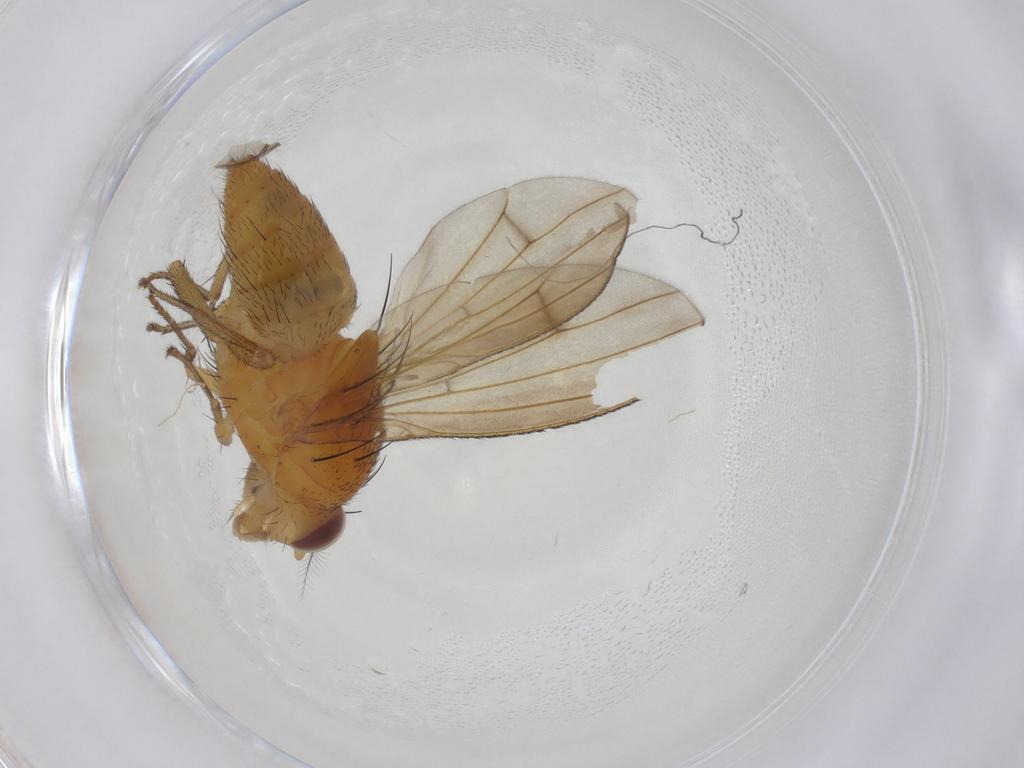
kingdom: Animalia
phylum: Arthropoda
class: Insecta
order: Diptera
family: Sciaridae
